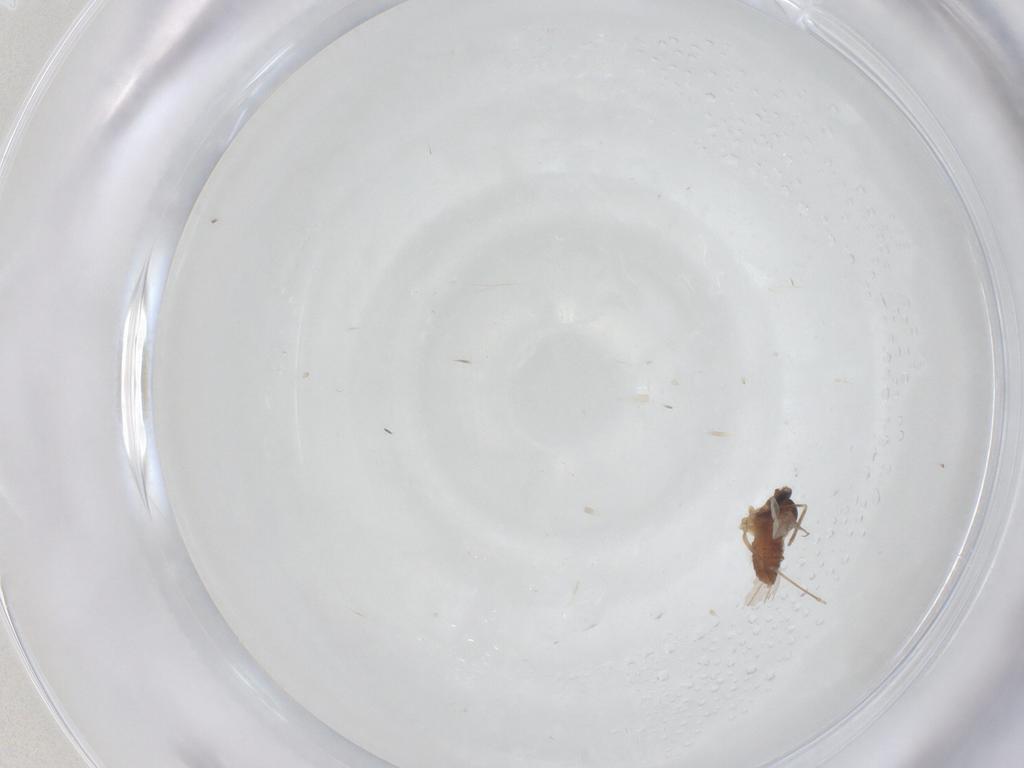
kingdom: Animalia
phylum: Arthropoda
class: Insecta
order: Diptera
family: Cecidomyiidae
